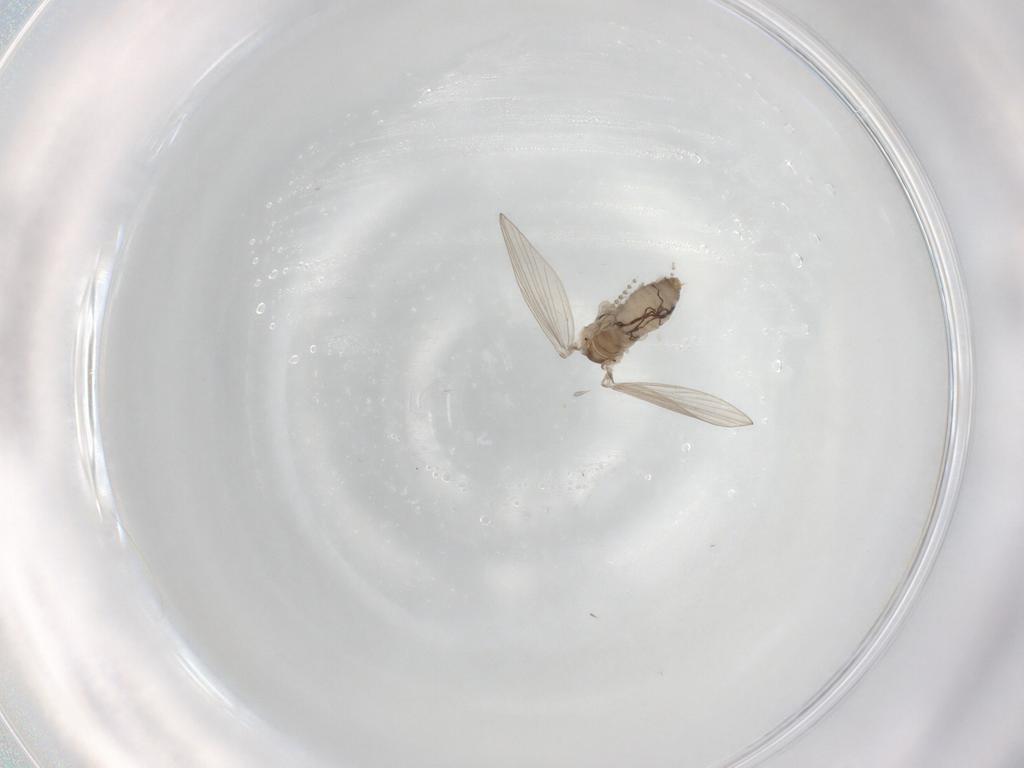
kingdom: Animalia
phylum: Arthropoda
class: Insecta
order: Diptera
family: Psychodidae
